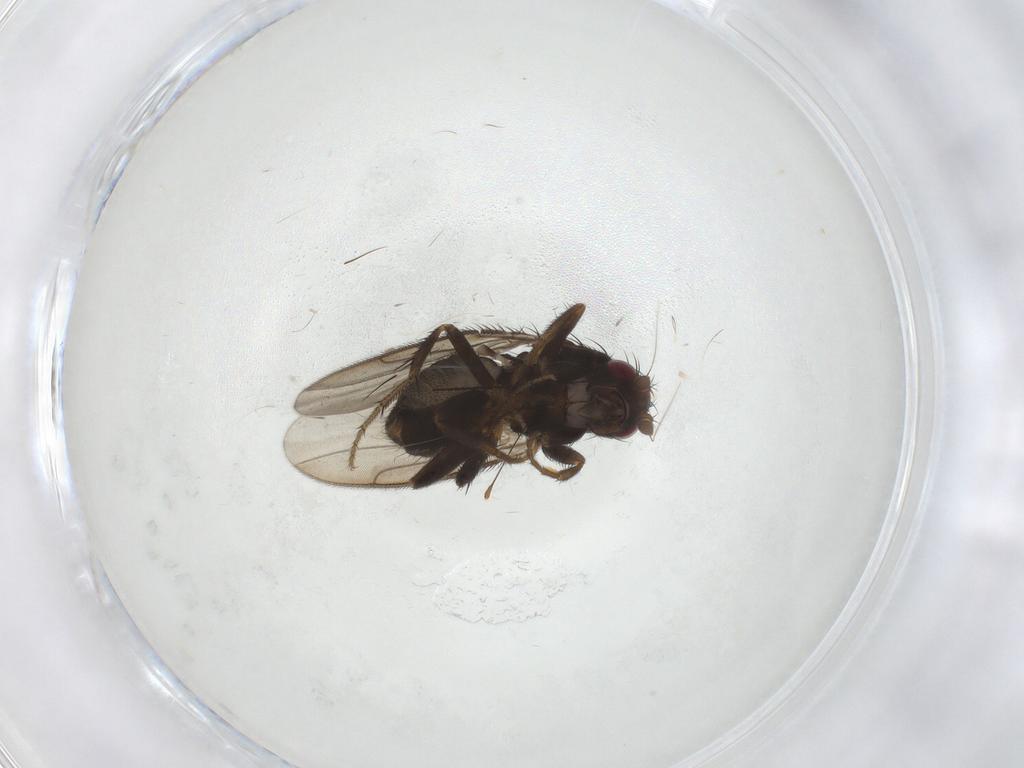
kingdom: Animalia
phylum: Arthropoda
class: Insecta
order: Diptera
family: Sphaeroceridae
